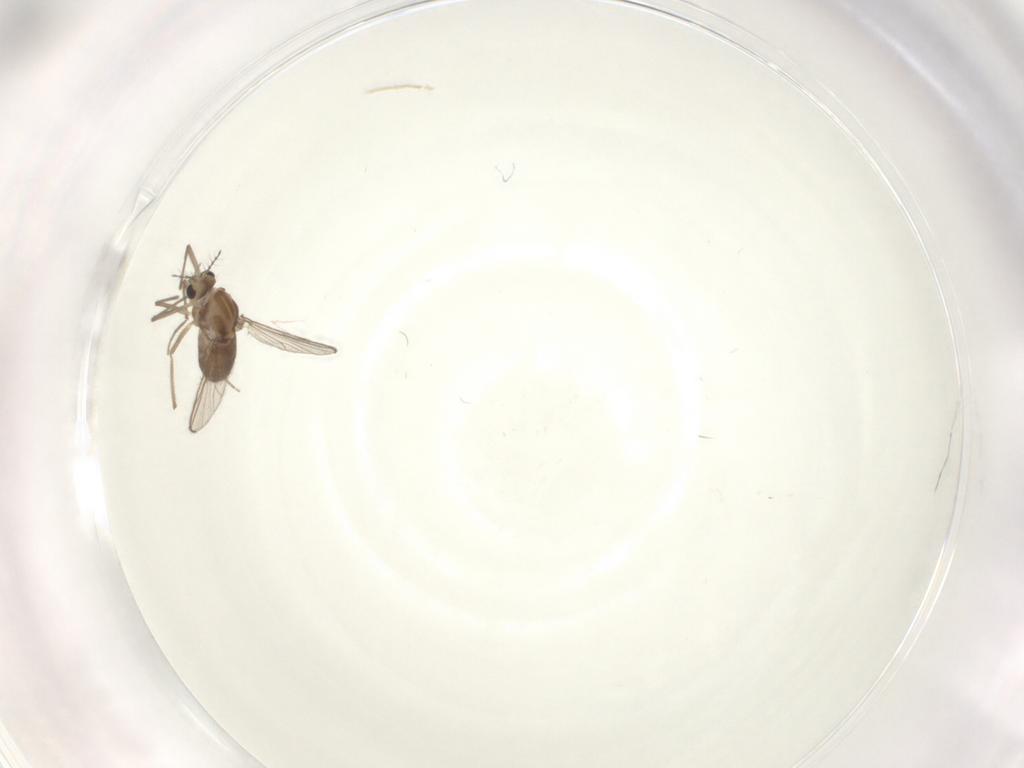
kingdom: Animalia
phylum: Arthropoda
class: Insecta
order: Diptera
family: Chironomidae
